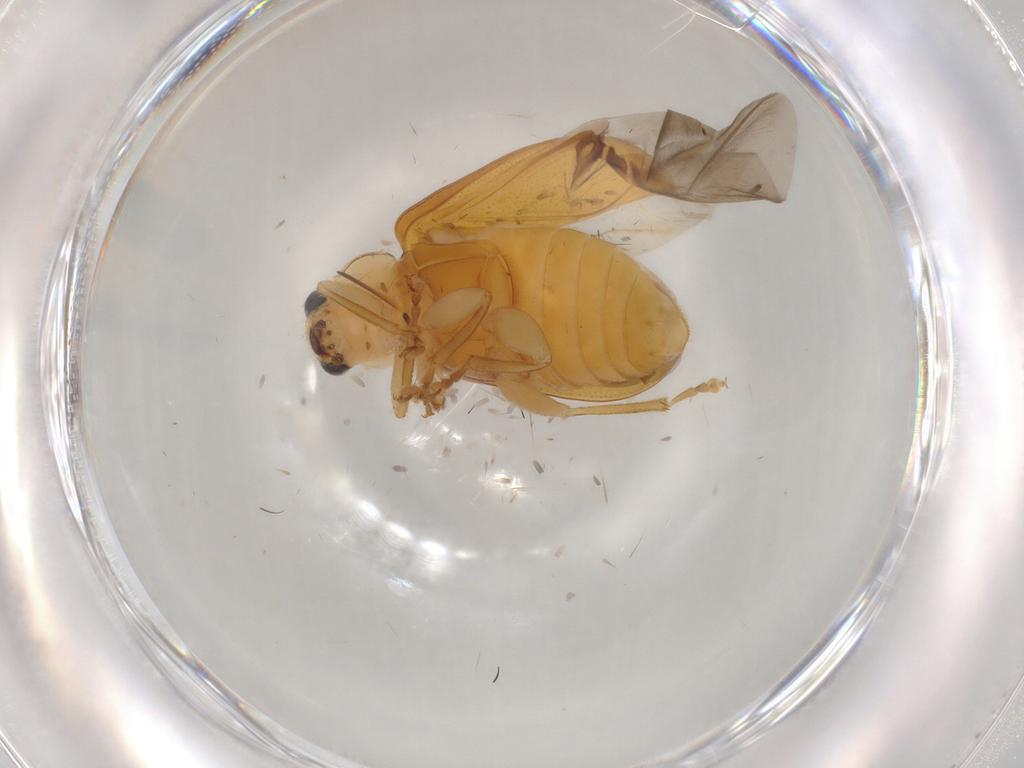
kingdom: Animalia
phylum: Arthropoda
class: Insecta
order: Coleoptera
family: Chrysomelidae
